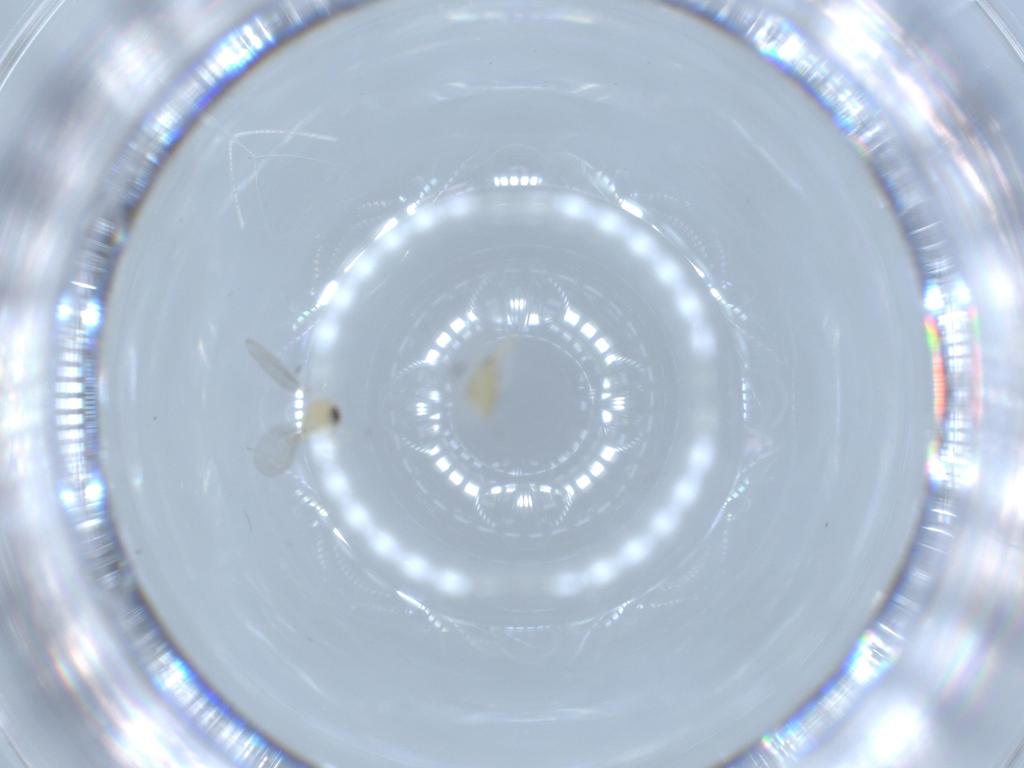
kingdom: Animalia
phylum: Arthropoda
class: Insecta
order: Diptera
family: Cecidomyiidae
